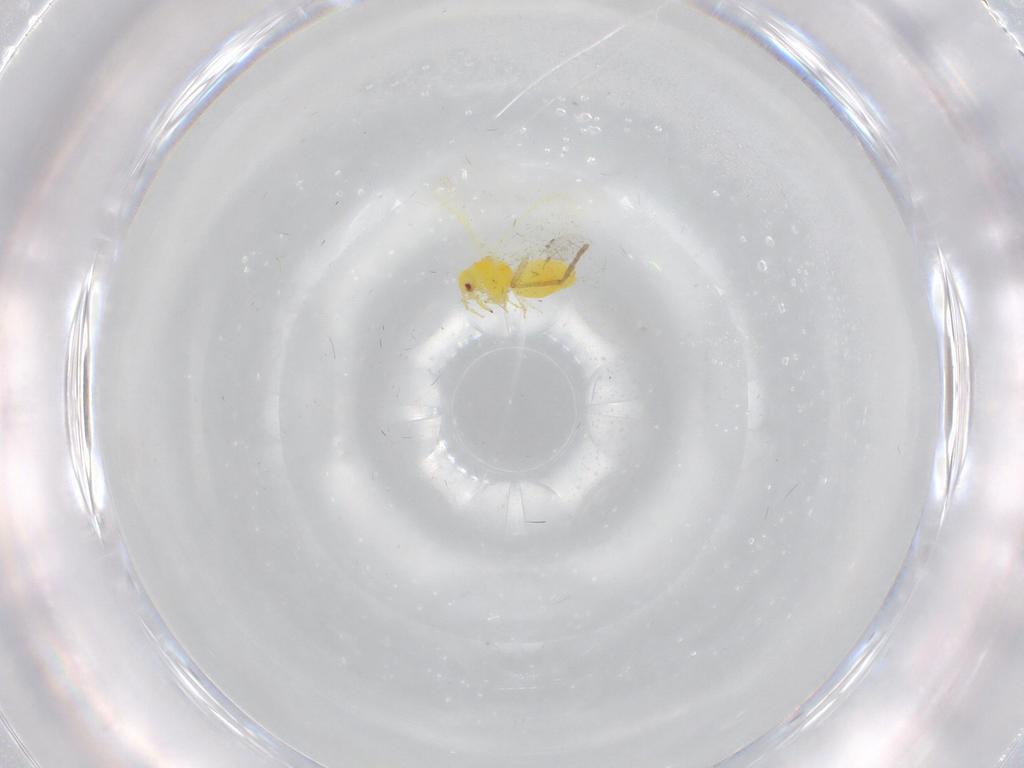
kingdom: Animalia
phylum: Arthropoda
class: Insecta
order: Hemiptera
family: Aleyrodidae
